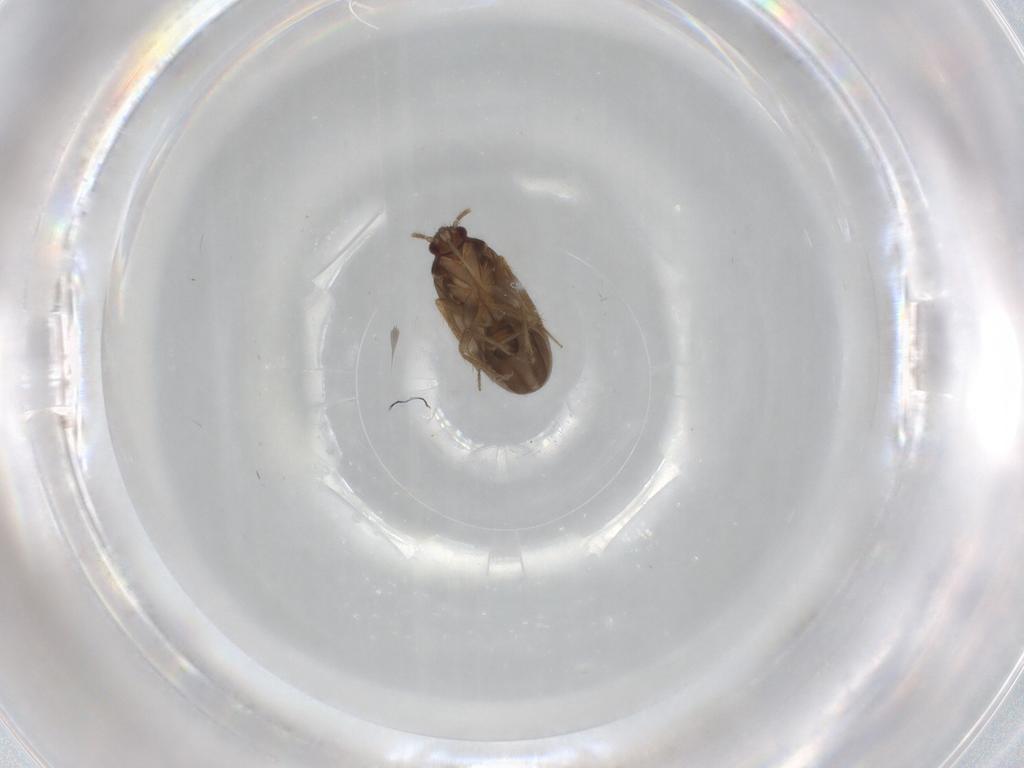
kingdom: Animalia
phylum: Arthropoda
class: Insecta
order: Hemiptera
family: Ceratocombidae
